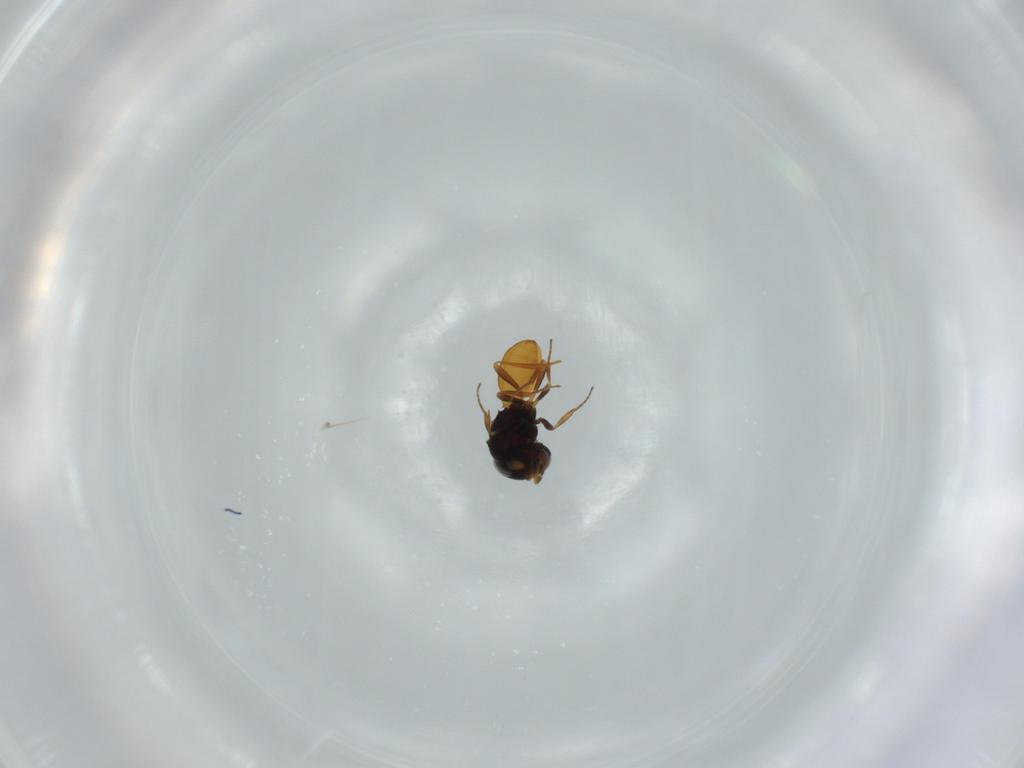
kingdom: Animalia
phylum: Arthropoda
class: Insecta
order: Hymenoptera
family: Scelionidae
